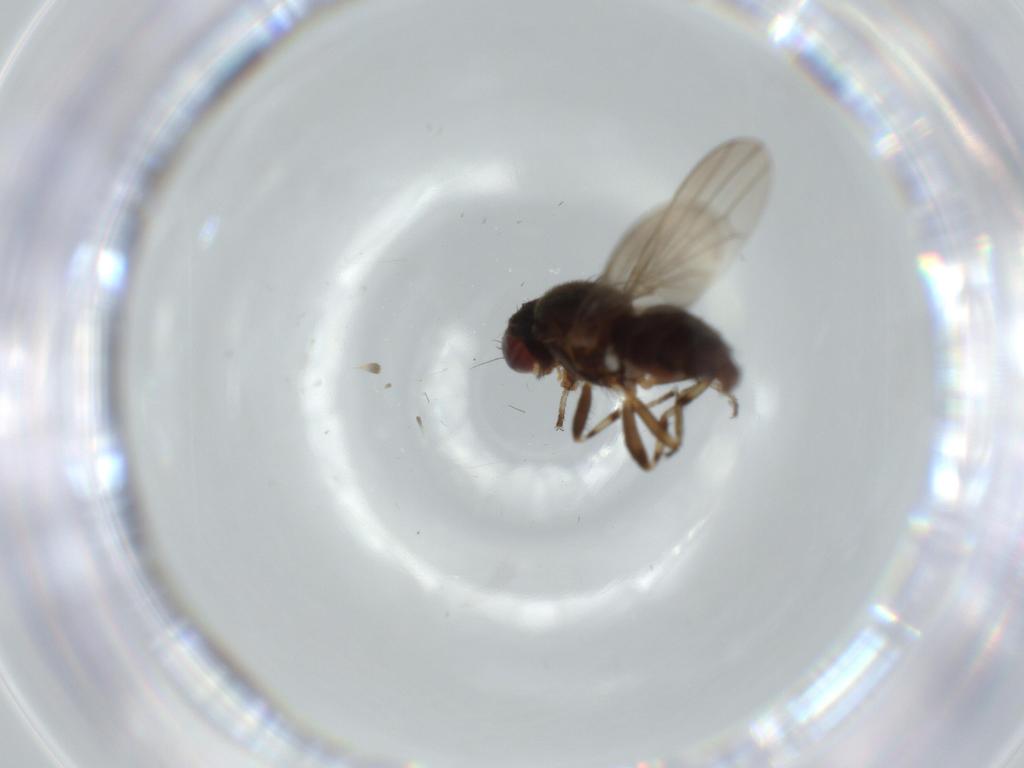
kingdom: Animalia
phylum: Arthropoda
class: Insecta
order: Diptera
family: Heleomyzidae
